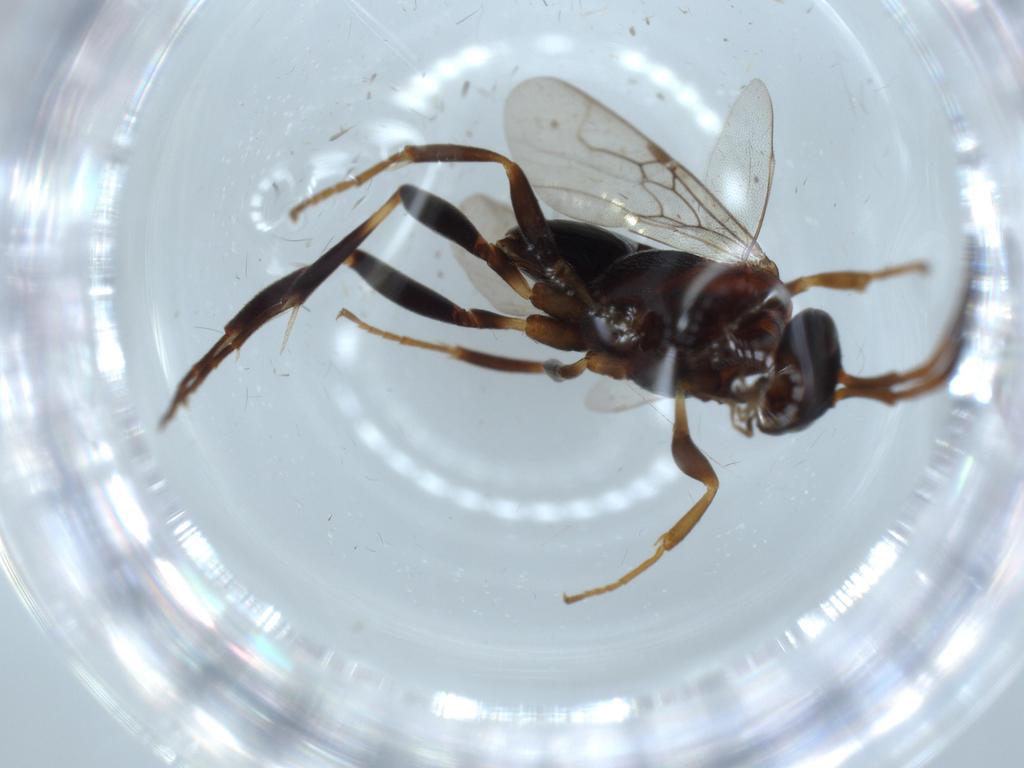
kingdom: Animalia
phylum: Arthropoda
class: Insecta
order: Hymenoptera
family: Evaniidae
